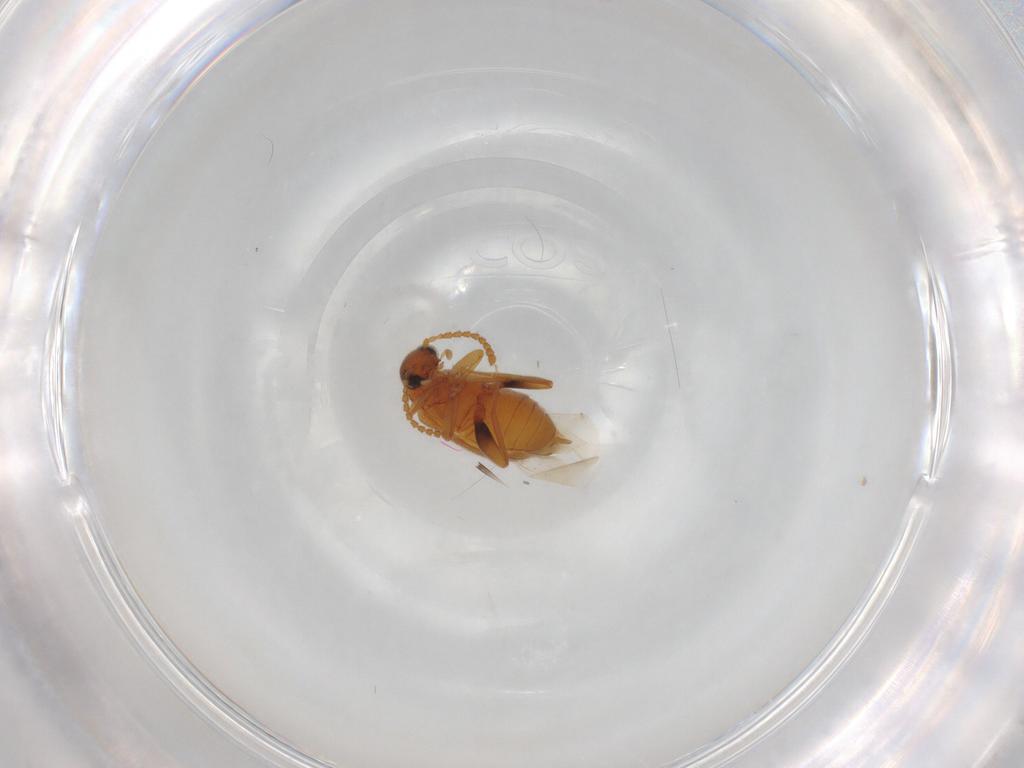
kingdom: Animalia
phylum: Arthropoda
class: Insecta
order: Coleoptera
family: Aderidae
